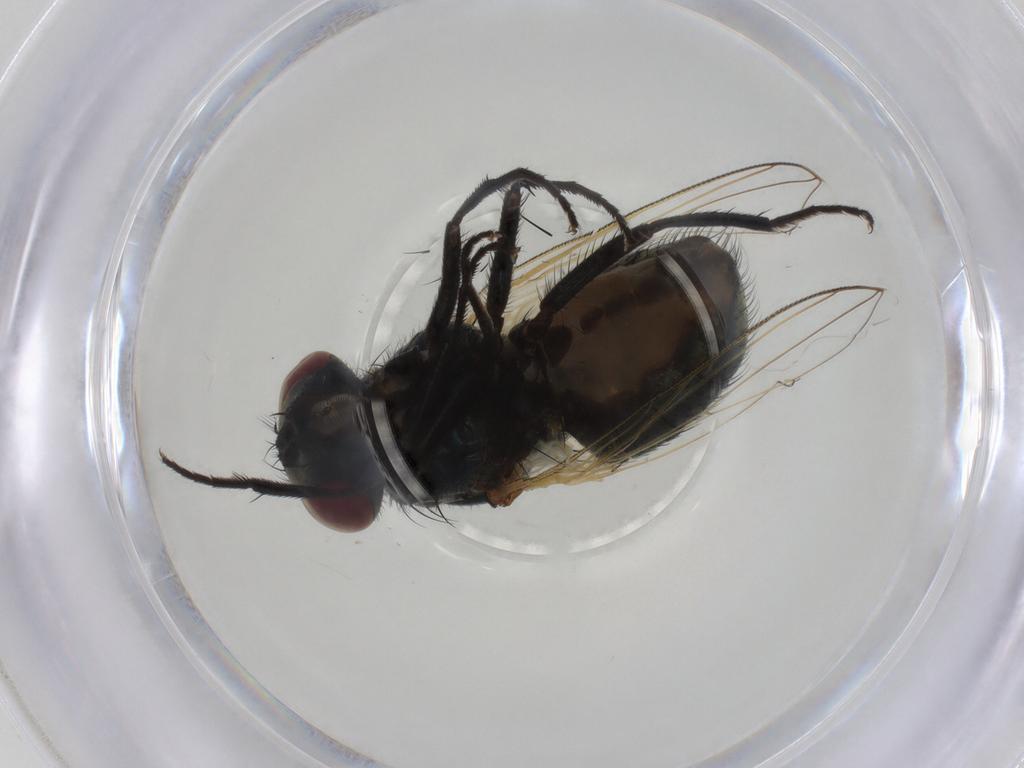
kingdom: Animalia
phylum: Arthropoda
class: Insecta
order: Diptera
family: Muscidae
